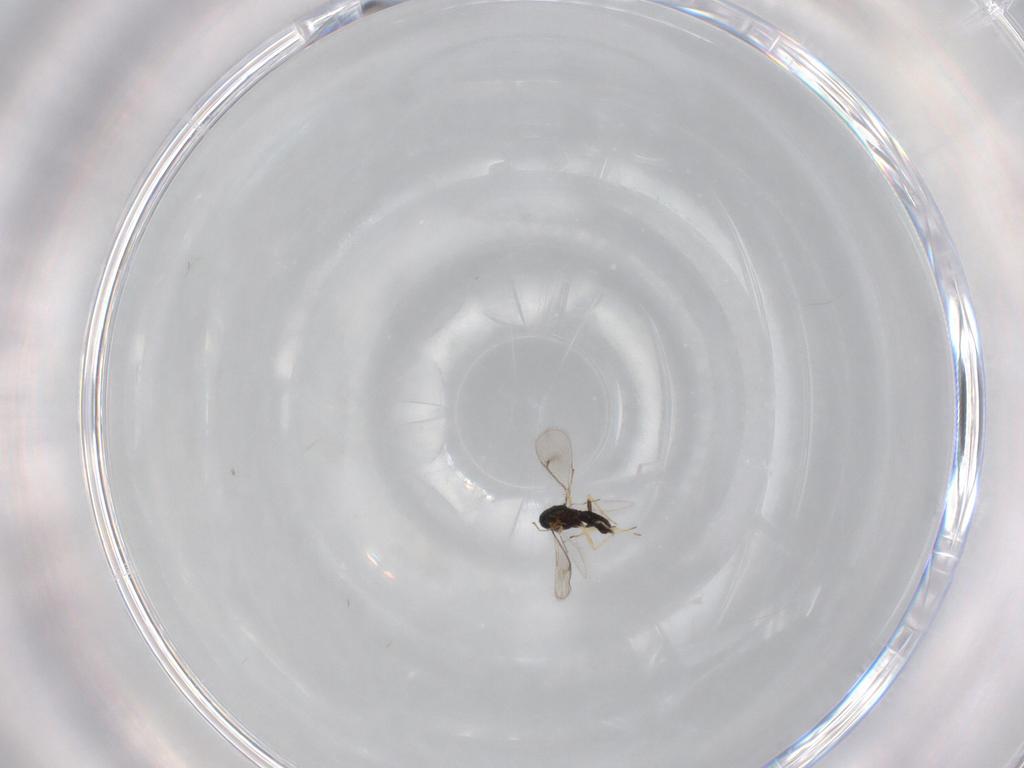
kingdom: Animalia
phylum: Arthropoda
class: Insecta
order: Hymenoptera
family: Eulophidae
